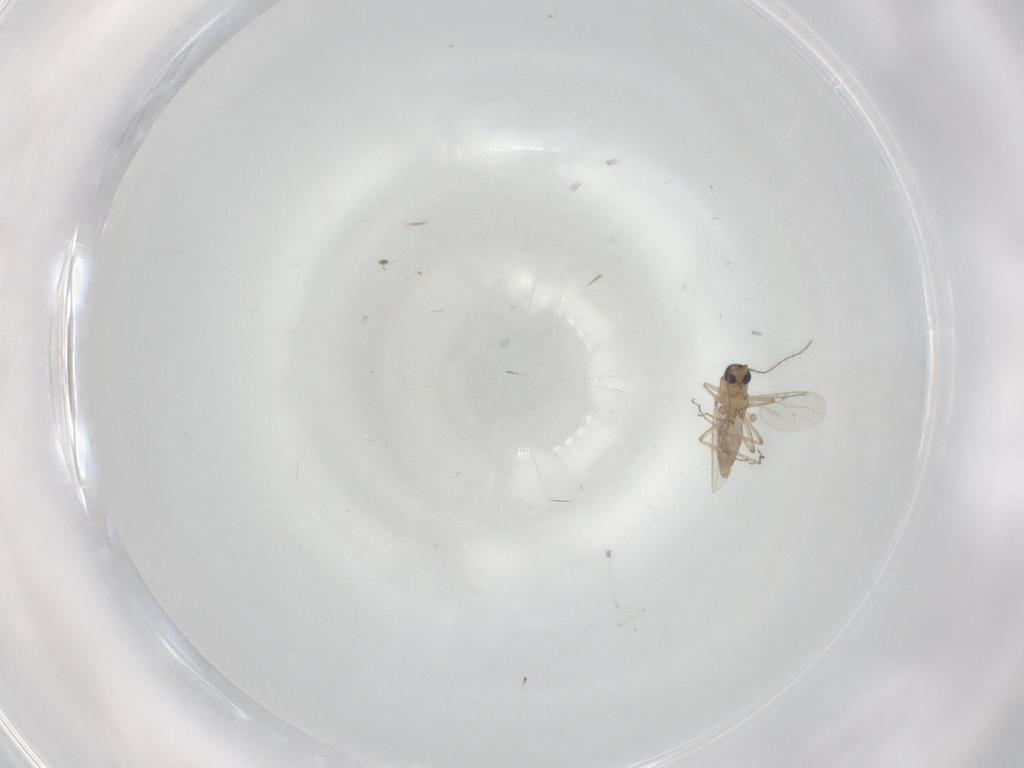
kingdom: Animalia
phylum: Arthropoda
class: Insecta
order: Diptera
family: Ceratopogonidae
